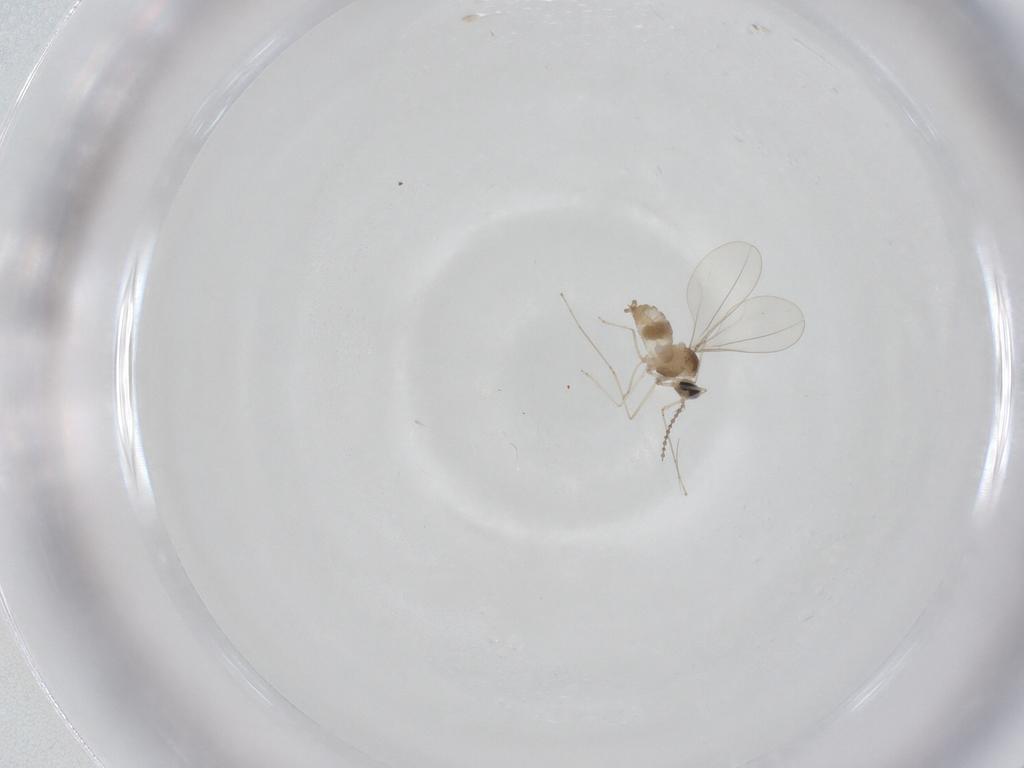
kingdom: Animalia
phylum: Arthropoda
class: Insecta
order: Diptera
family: Cecidomyiidae
